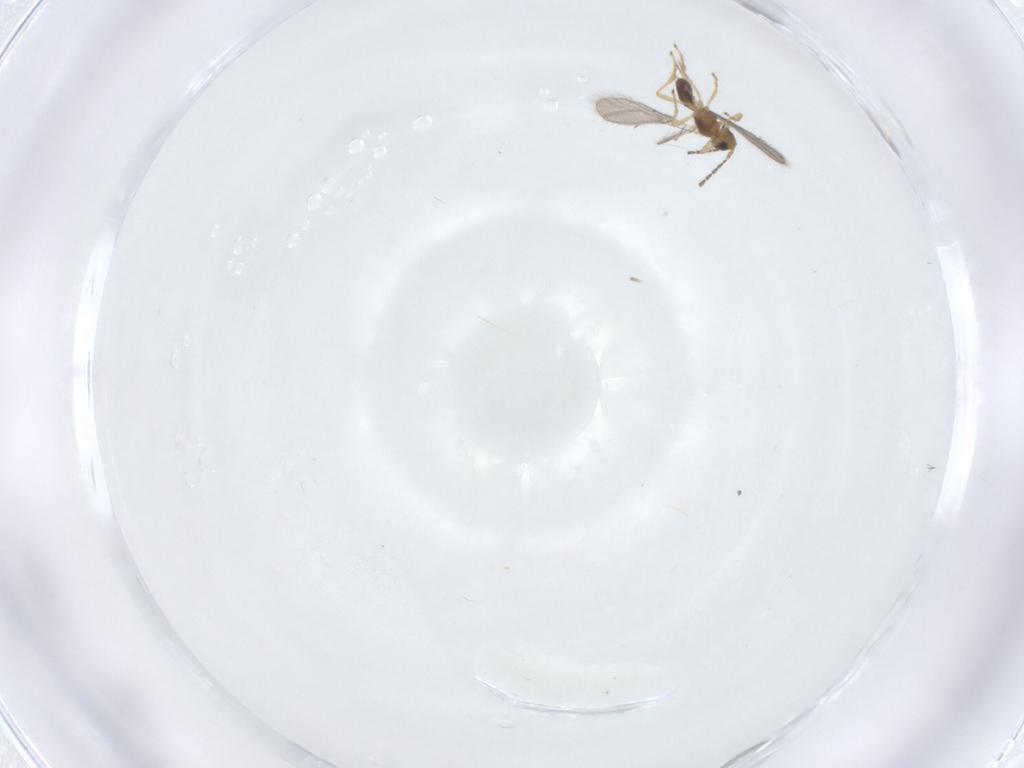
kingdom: Animalia
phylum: Arthropoda
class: Insecta
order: Hymenoptera
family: Braconidae
